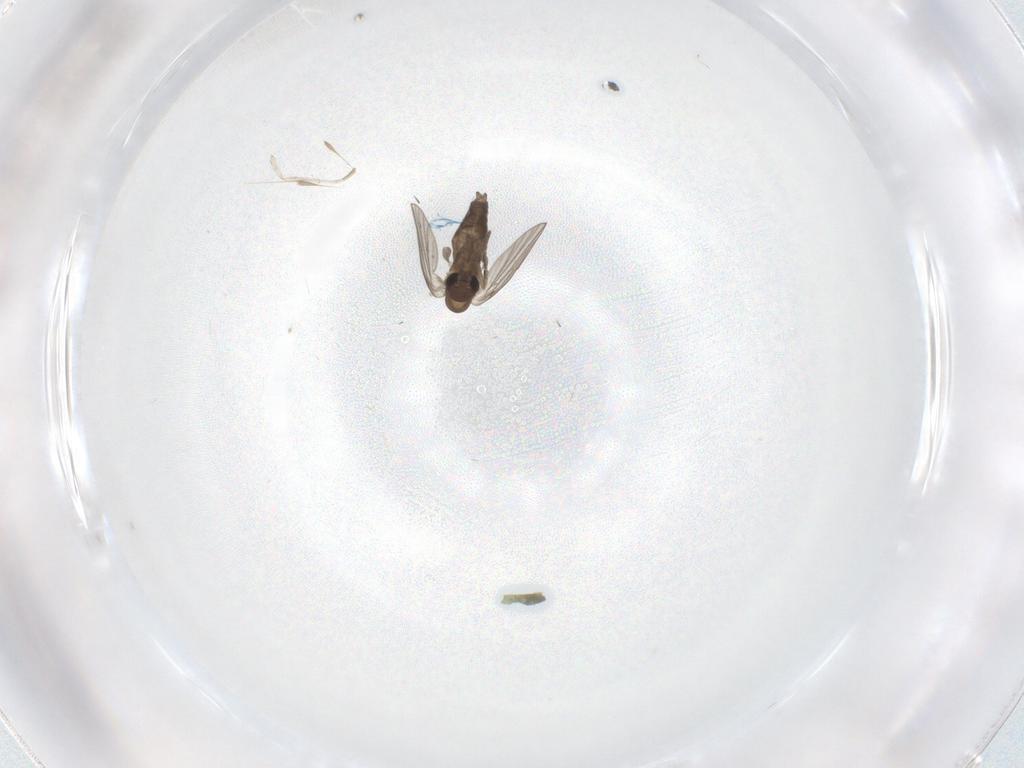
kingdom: Animalia
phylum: Arthropoda
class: Insecta
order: Diptera
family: Cecidomyiidae
